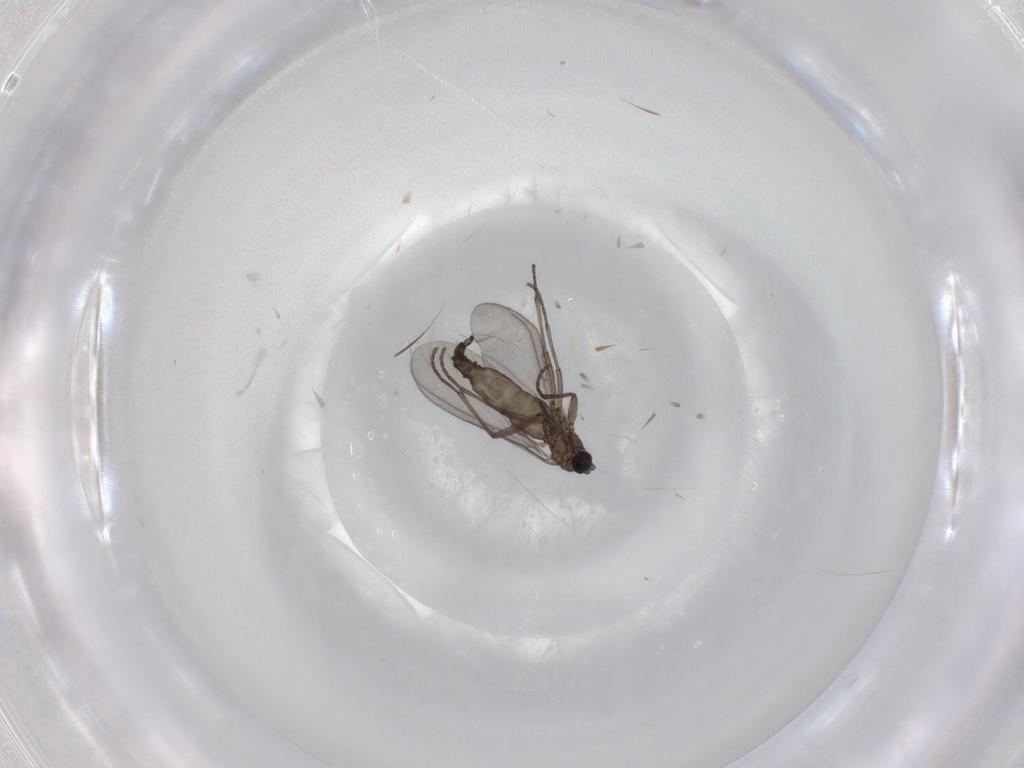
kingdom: Animalia
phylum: Arthropoda
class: Insecta
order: Diptera
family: Sciaridae
